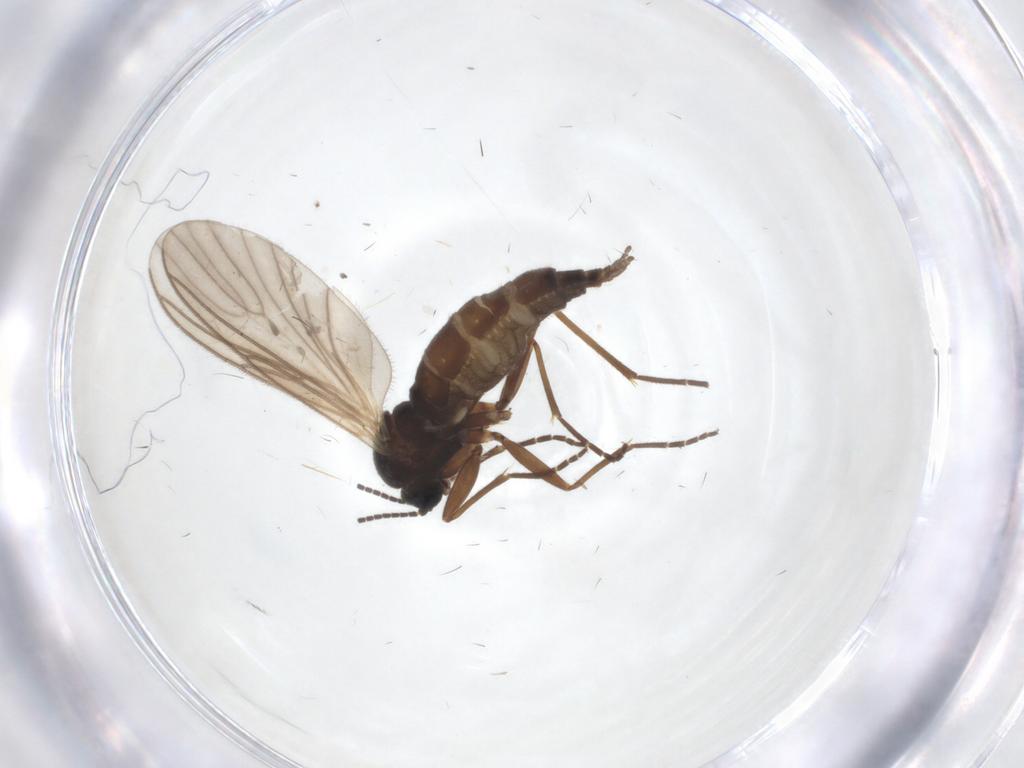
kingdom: Animalia
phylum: Arthropoda
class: Insecta
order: Diptera
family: Sciaridae
